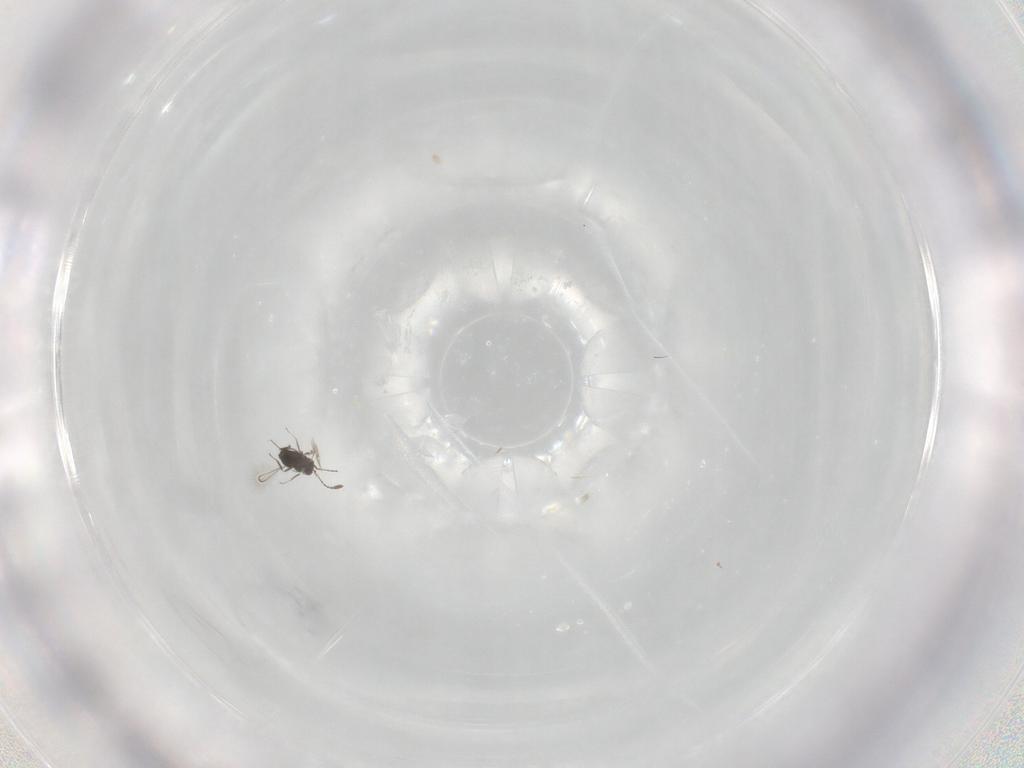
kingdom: Animalia
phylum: Arthropoda
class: Insecta
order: Hymenoptera
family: Mymaridae
